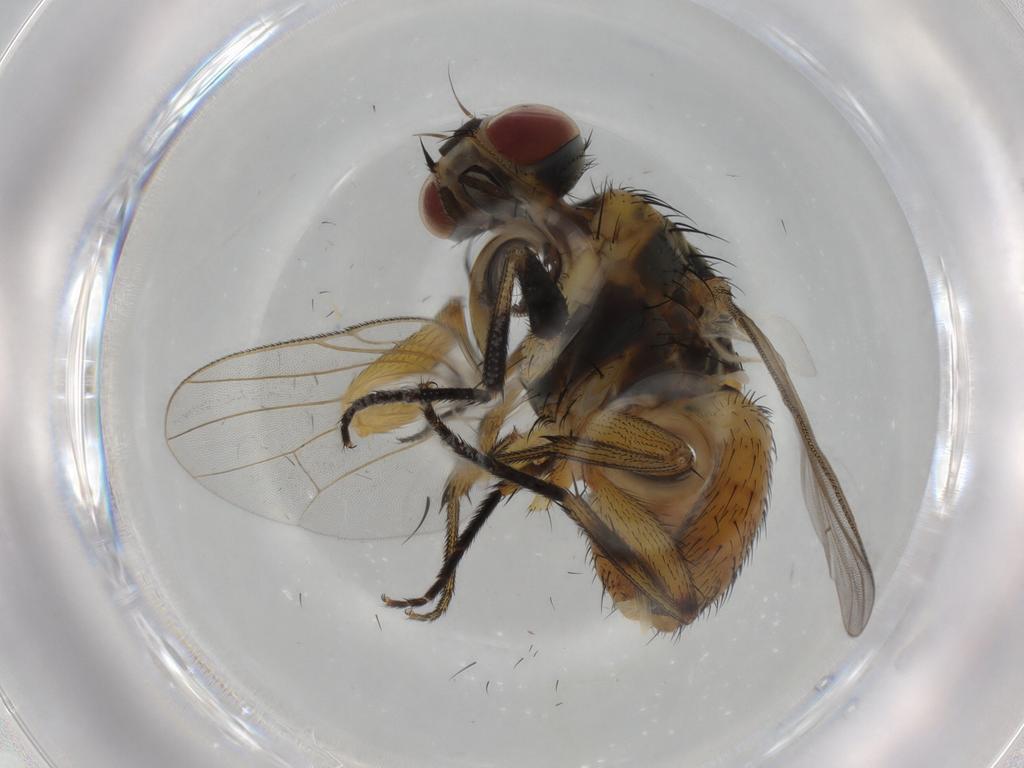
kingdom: Animalia
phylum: Arthropoda
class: Insecta
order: Diptera
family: Muscidae
